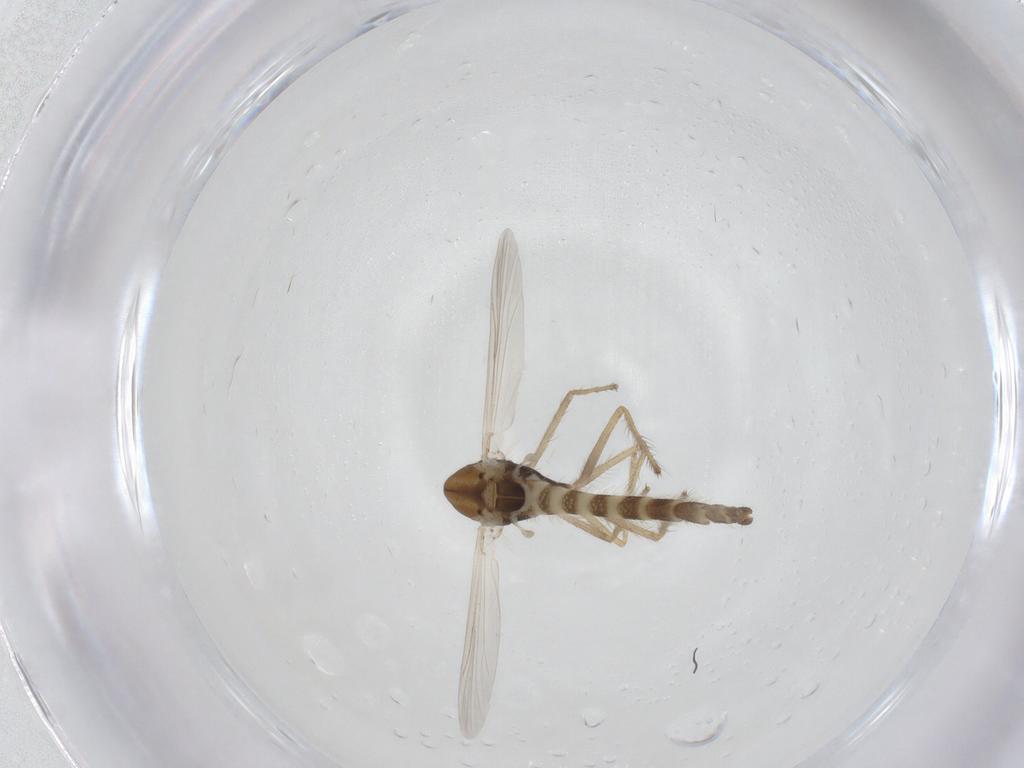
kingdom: Animalia
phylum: Arthropoda
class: Insecta
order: Diptera
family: Chironomidae
